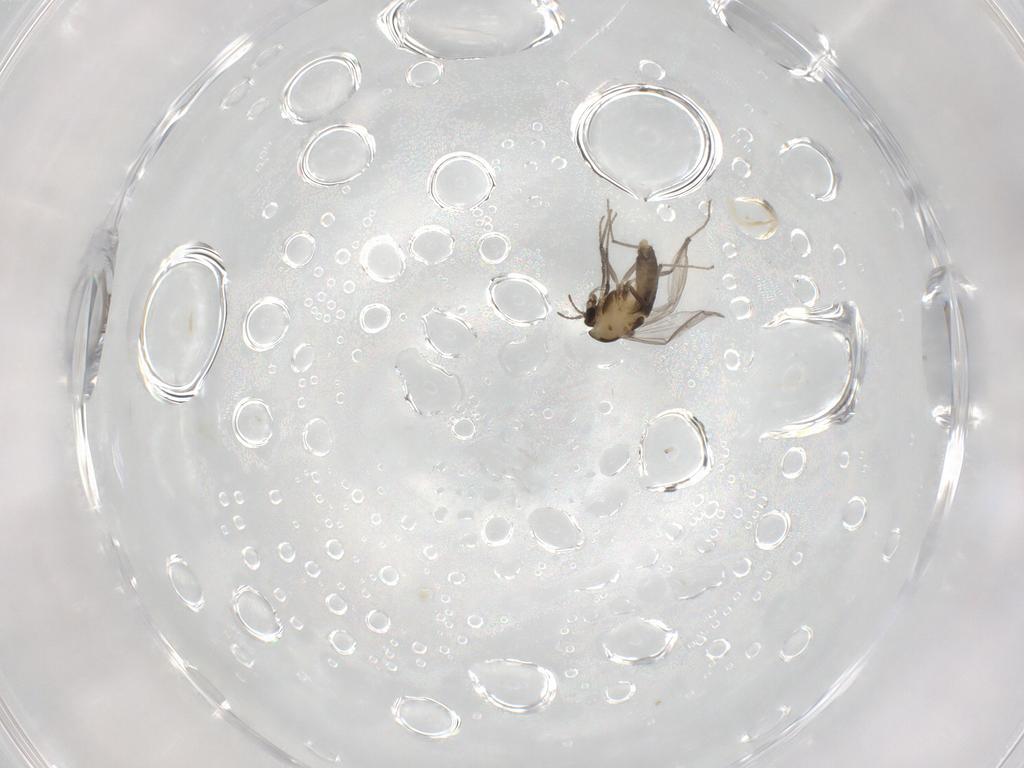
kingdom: Animalia
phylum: Arthropoda
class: Insecta
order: Diptera
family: Chironomidae
